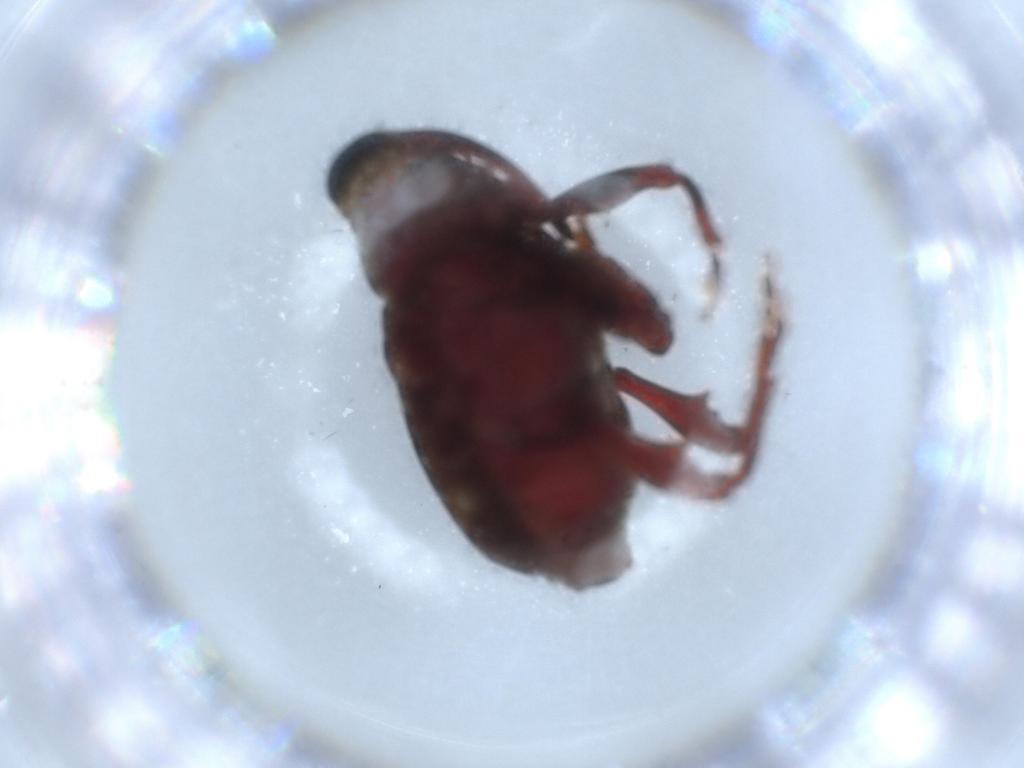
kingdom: Animalia
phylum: Arthropoda
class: Insecta
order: Coleoptera
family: Curculionidae
